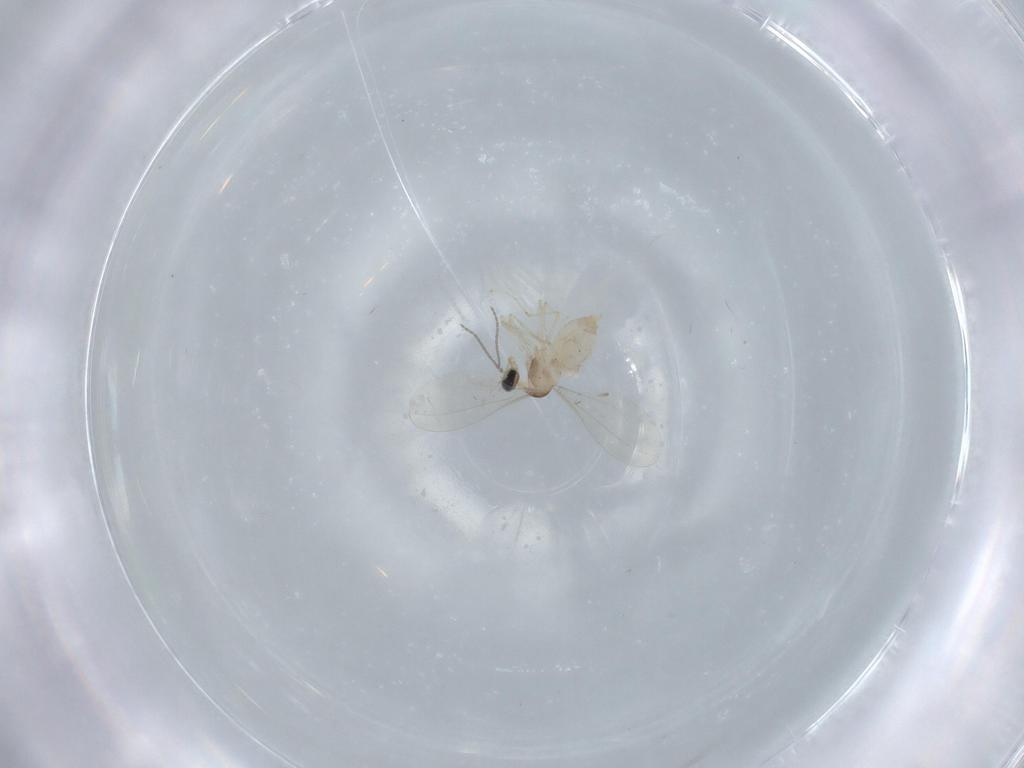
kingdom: Animalia
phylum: Arthropoda
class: Insecta
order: Diptera
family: Cecidomyiidae
